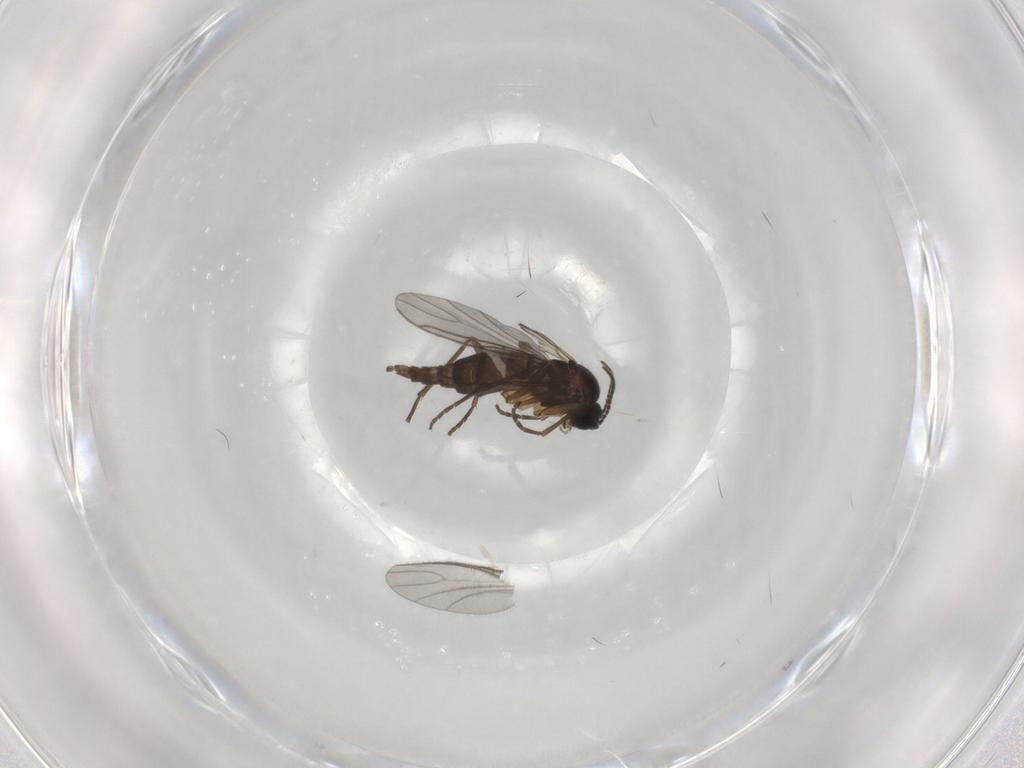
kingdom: Animalia
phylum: Arthropoda
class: Insecta
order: Diptera
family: Sciaridae
